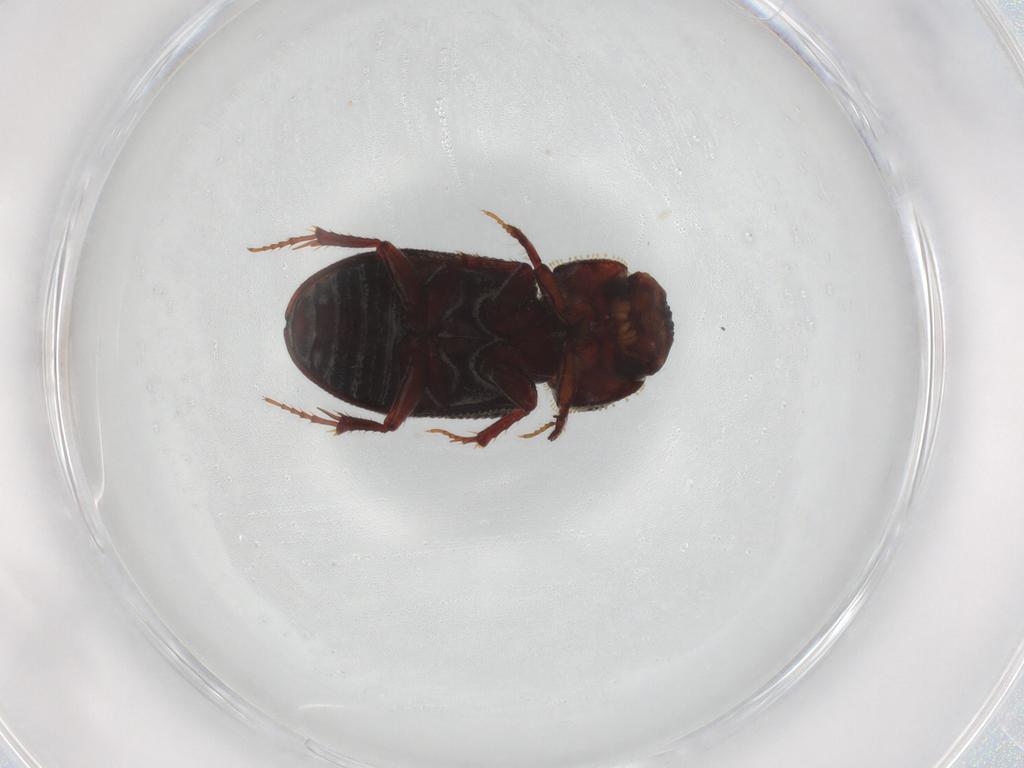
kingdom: Animalia
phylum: Arthropoda
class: Insecta
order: Coleoptera
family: Scarabaeidae
